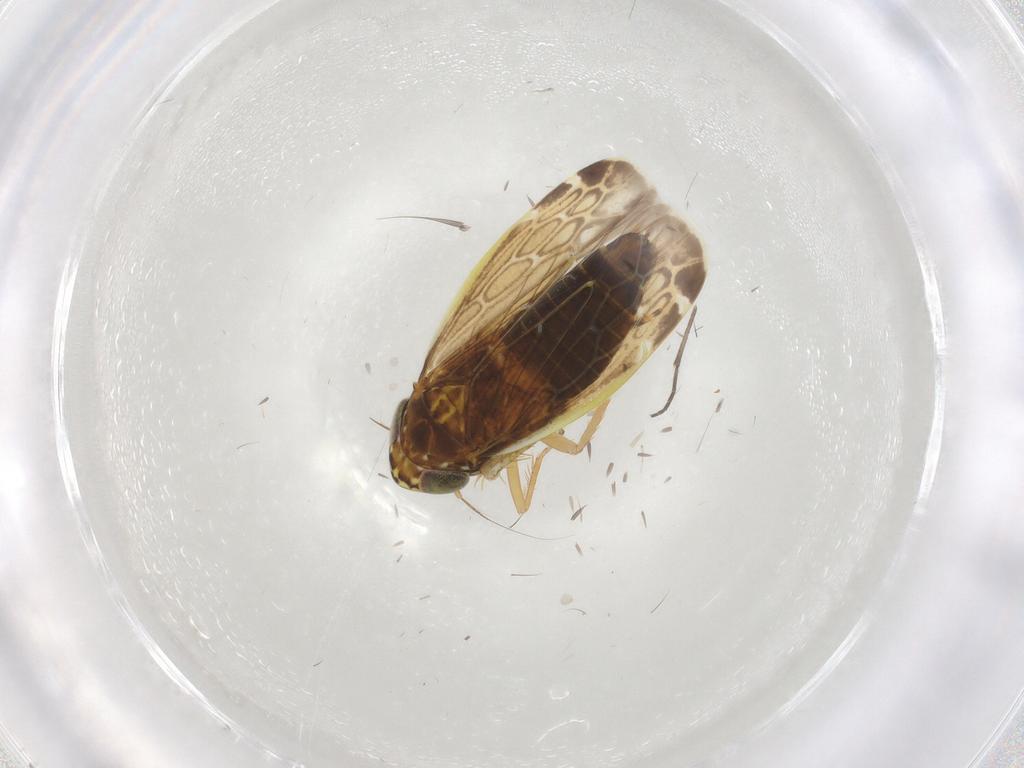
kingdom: Animalia
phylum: Arthropoda
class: Insecta
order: Hemiptera
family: Cicadellidae
